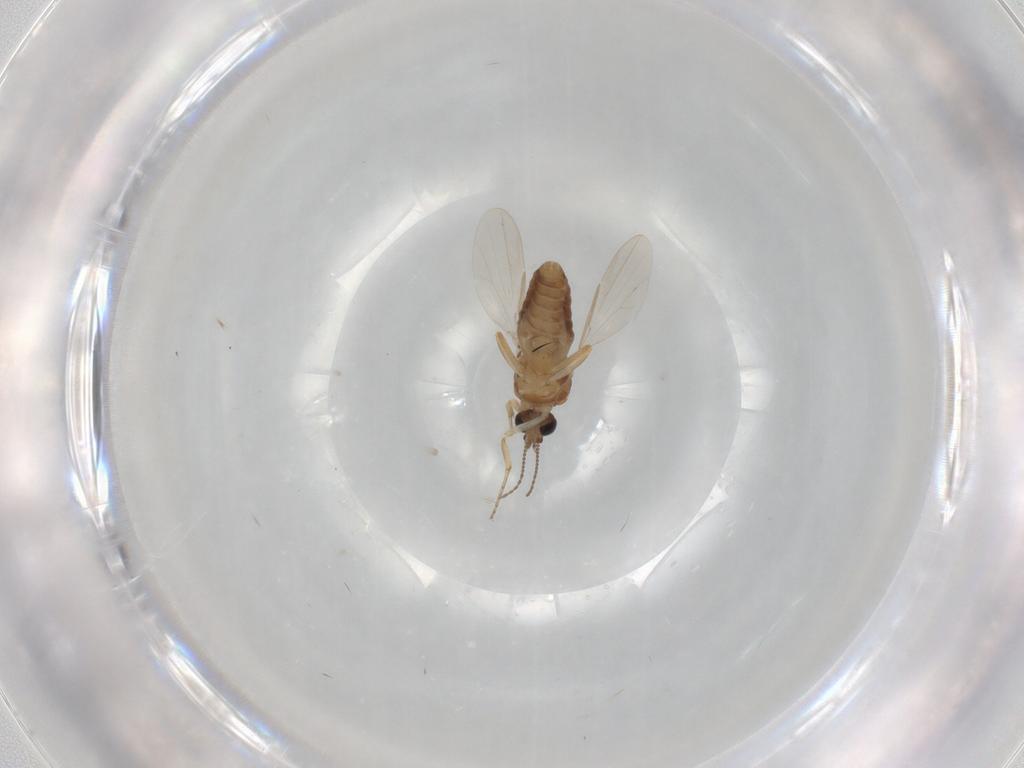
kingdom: Animalia
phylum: Arthropoda
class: Insecta
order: Diptera
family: Ceratopogonidae
